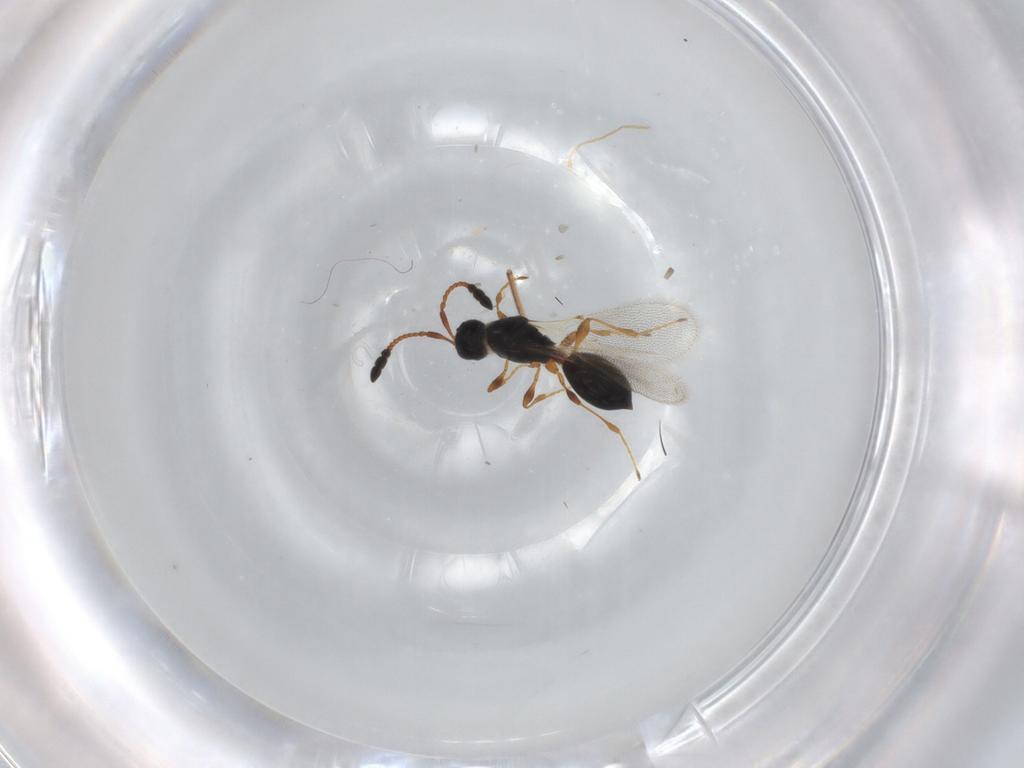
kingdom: Animalia
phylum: Arthropoda
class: Insecta
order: Hymenoptera
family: Diapriidae
